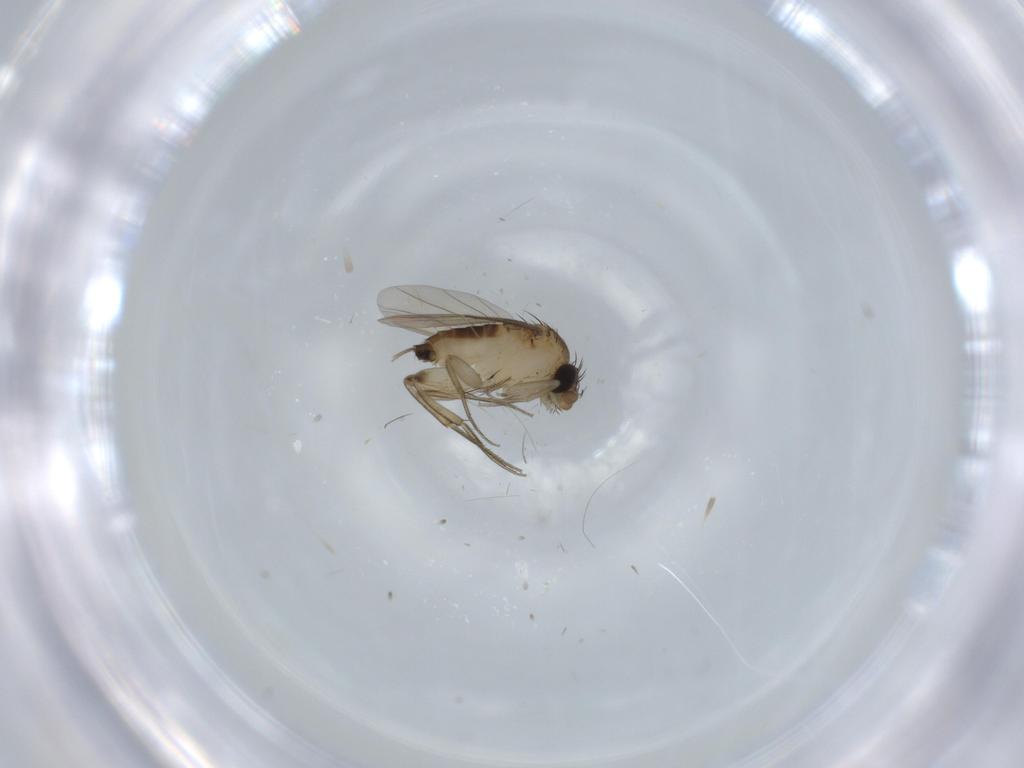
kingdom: Animalia
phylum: Arthropoda
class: Insecta
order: Diptera
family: Phoridae
